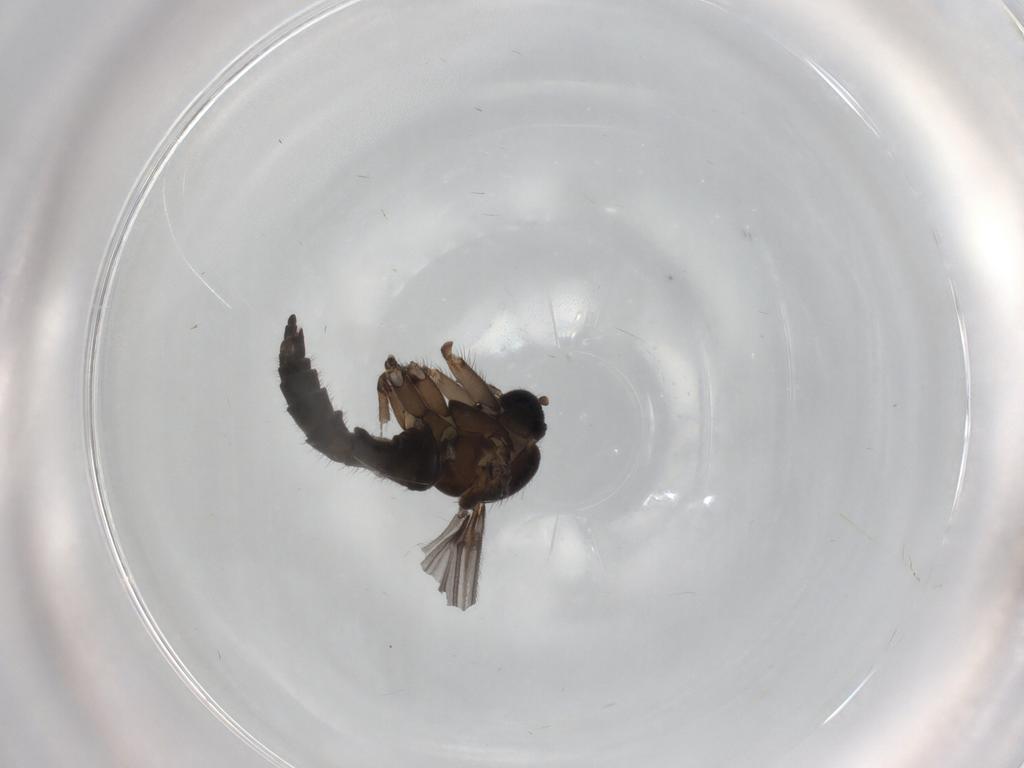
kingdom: Animalia
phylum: Arthropoda
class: Insecta
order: Diptera
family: Sciaridae
